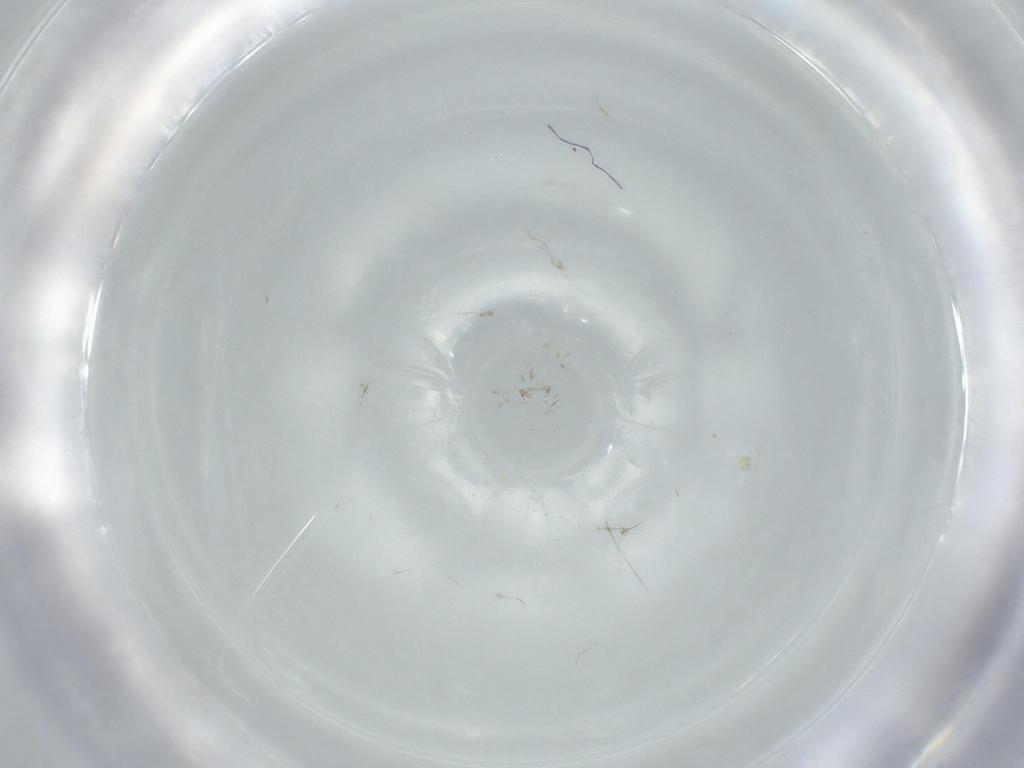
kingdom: Animalia
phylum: Arthropoda
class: Insecta
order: Psocodea
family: Liposcelididae
